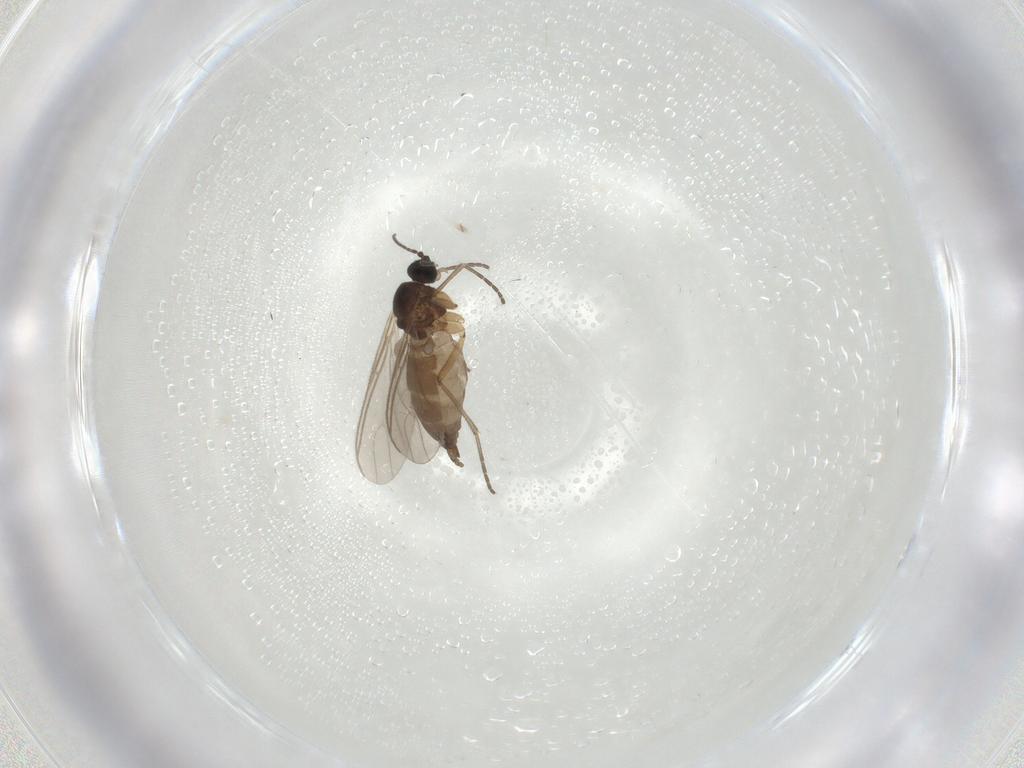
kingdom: Animalia
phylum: Arthropoda
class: Insecta
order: Diptera
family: Sciaridae
